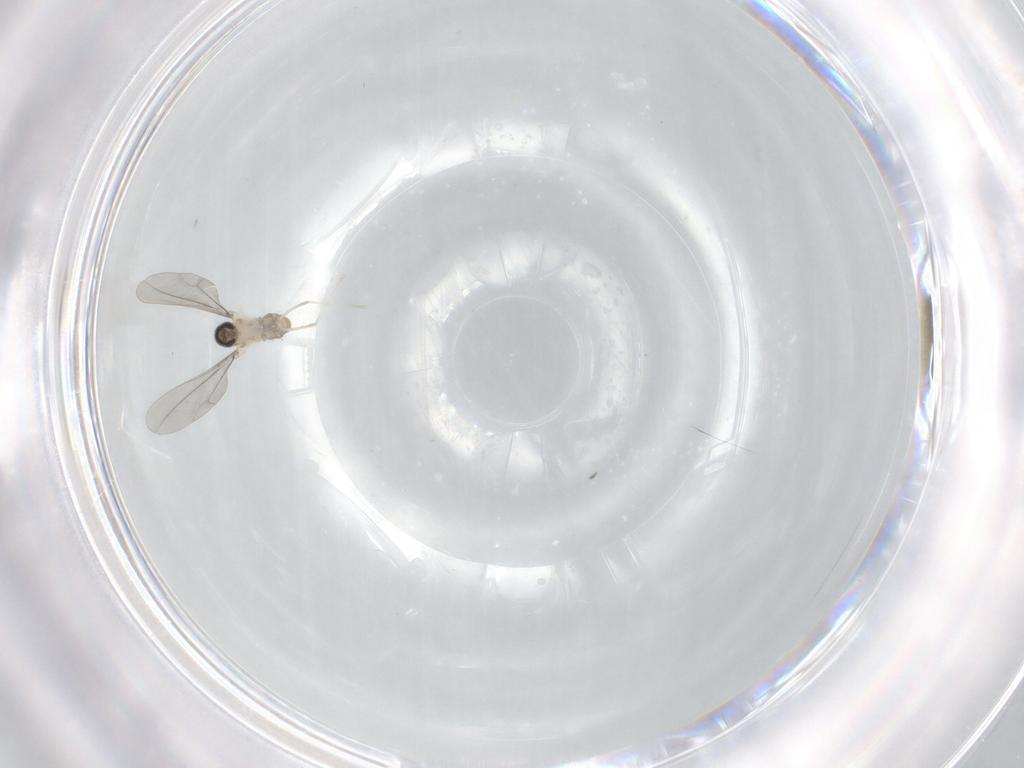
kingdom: Animalia
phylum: Arthropoda
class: Insecta
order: Diptera
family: Cecidomyiidae
